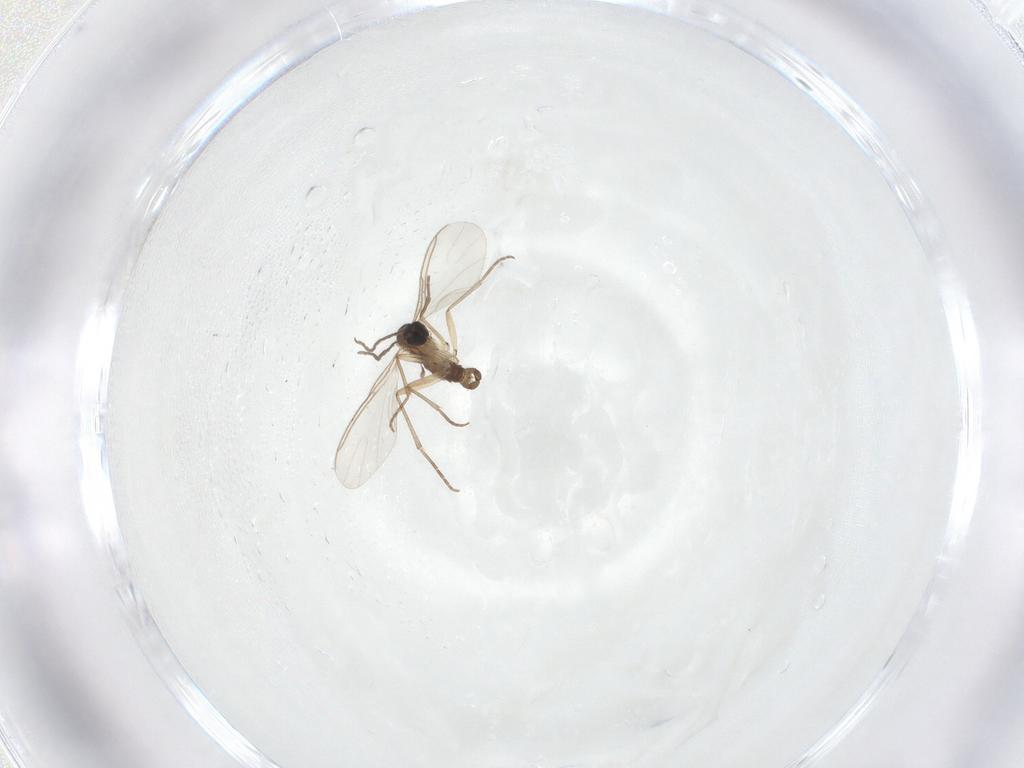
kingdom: Animalia
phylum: Arthropoda
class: Insecta
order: Diptera
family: Sciaridae
